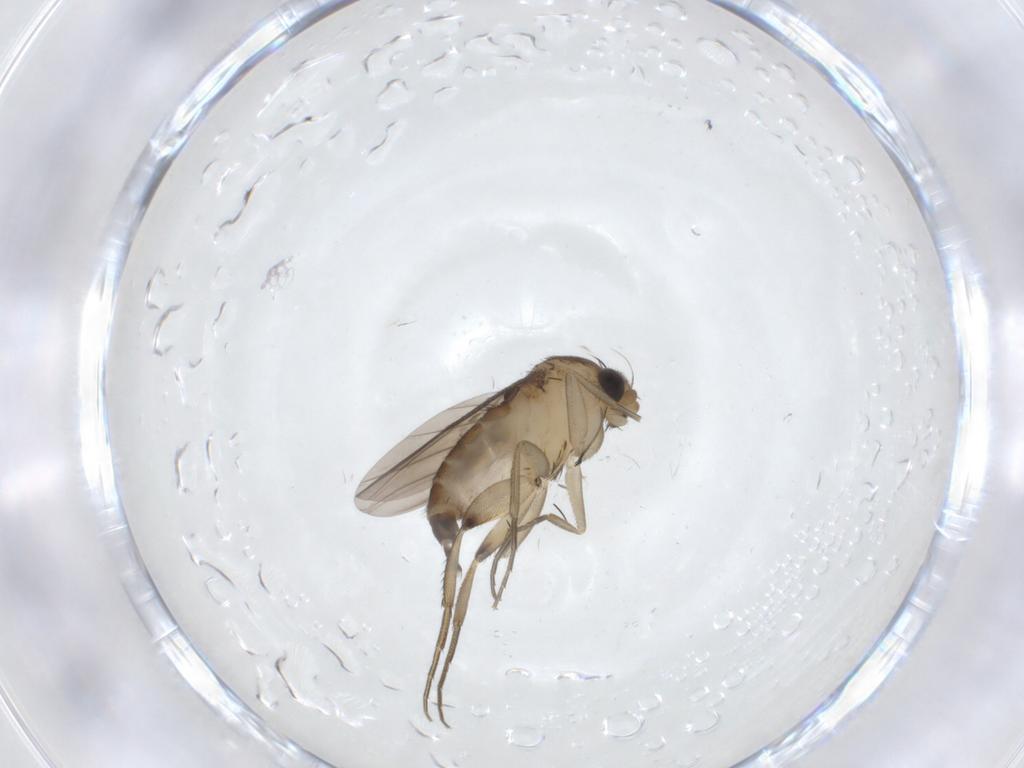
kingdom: Animalia
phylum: Arthropoda
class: Insecta
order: Diptera
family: Phoridae
